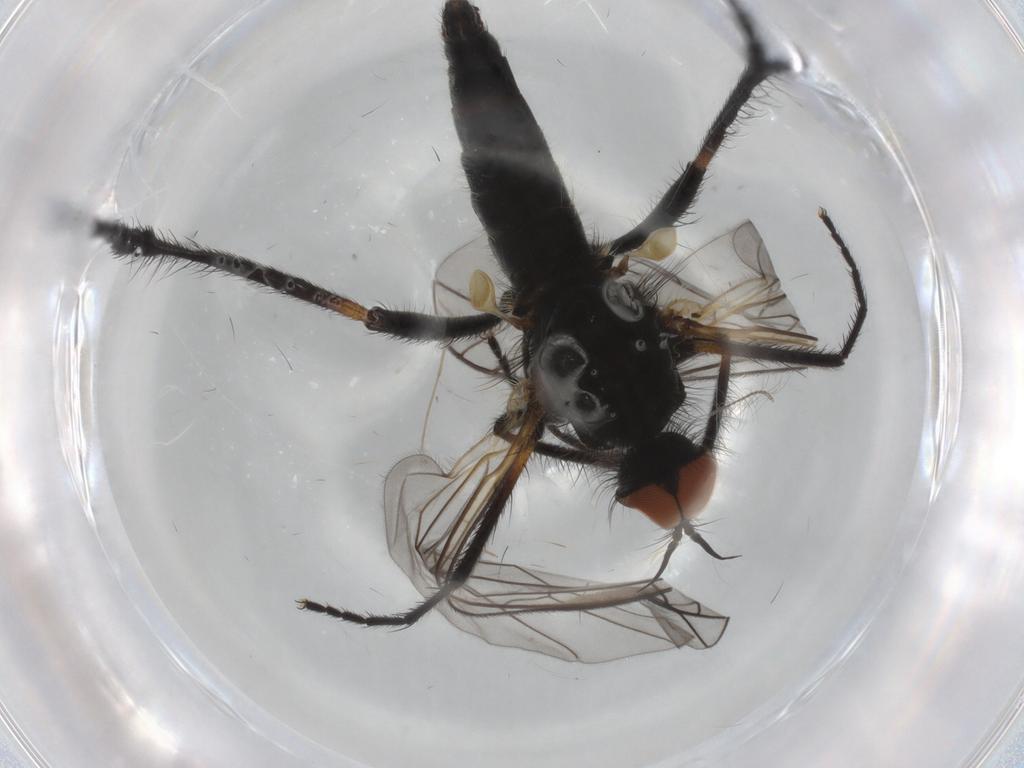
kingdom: Animalia
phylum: Arthropoda
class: Insecta
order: Diptera
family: Empididae
